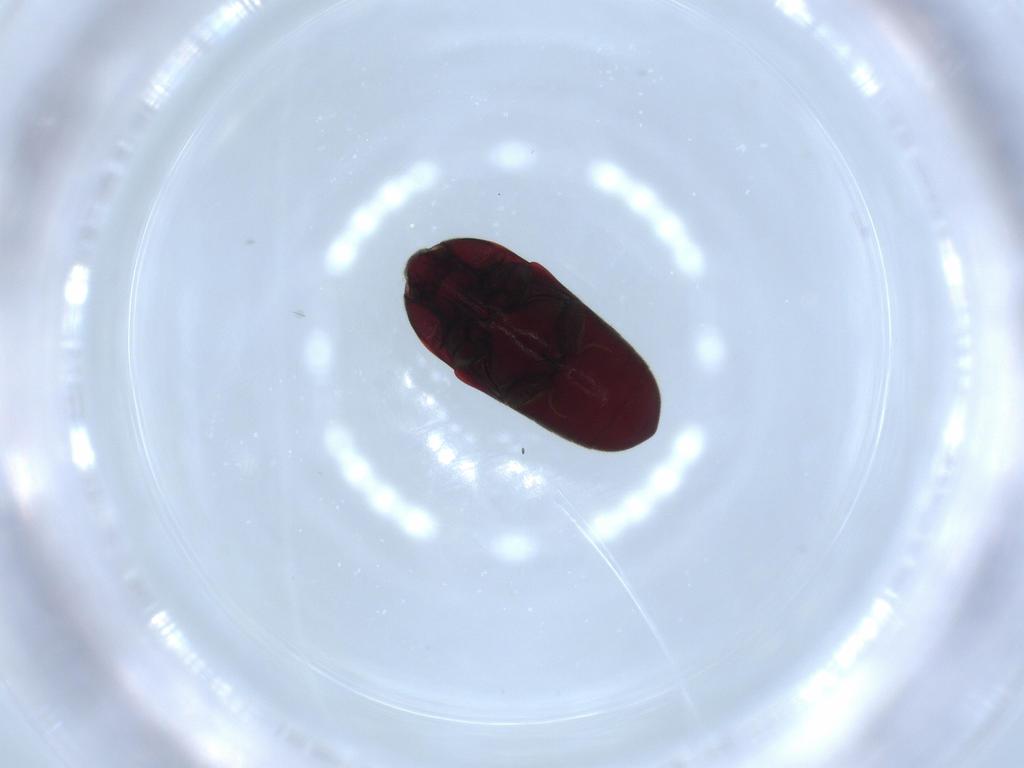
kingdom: Animalia
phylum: Arthropoda
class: Insecta
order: Coleoptera
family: Throscidae
